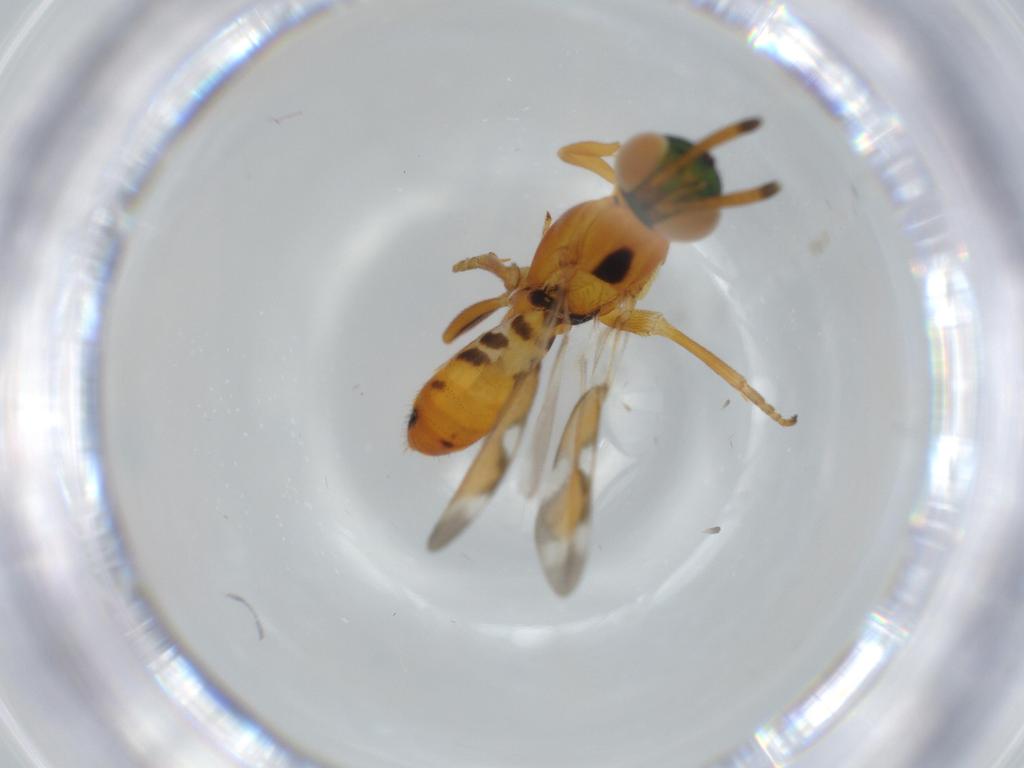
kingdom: Animalia
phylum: Arthropoda
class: Insecta
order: Hymenoptera
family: Eupelmidae
